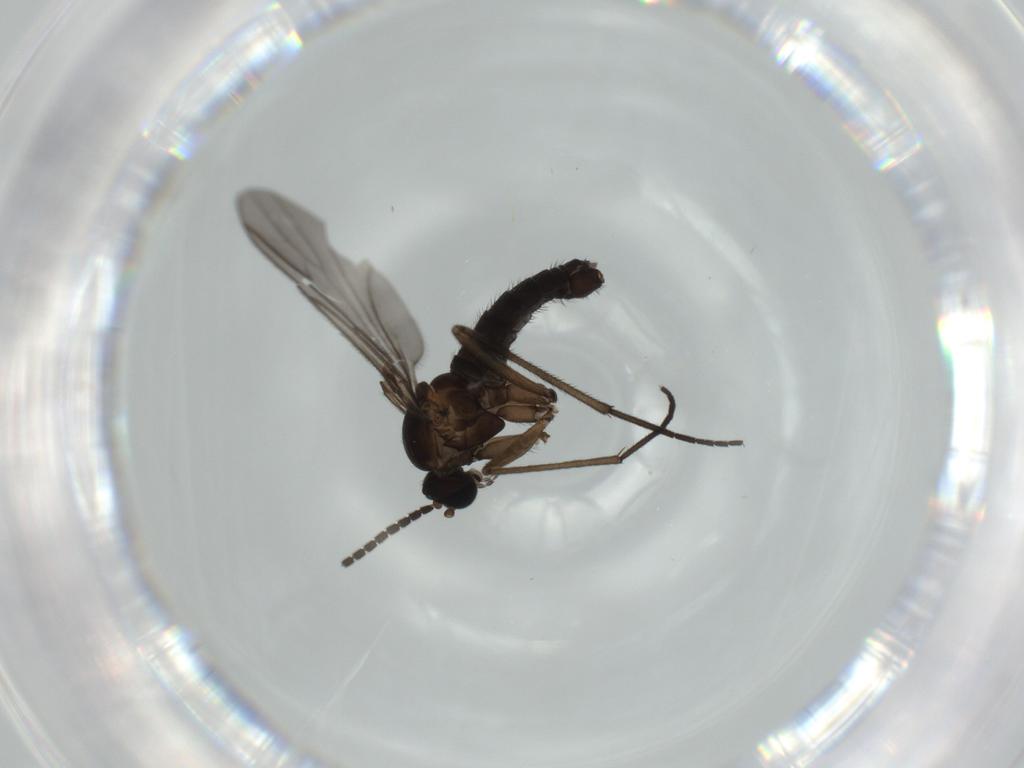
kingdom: Animalia
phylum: Arthropoda
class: Insecta
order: Diptera
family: Sciaridae
